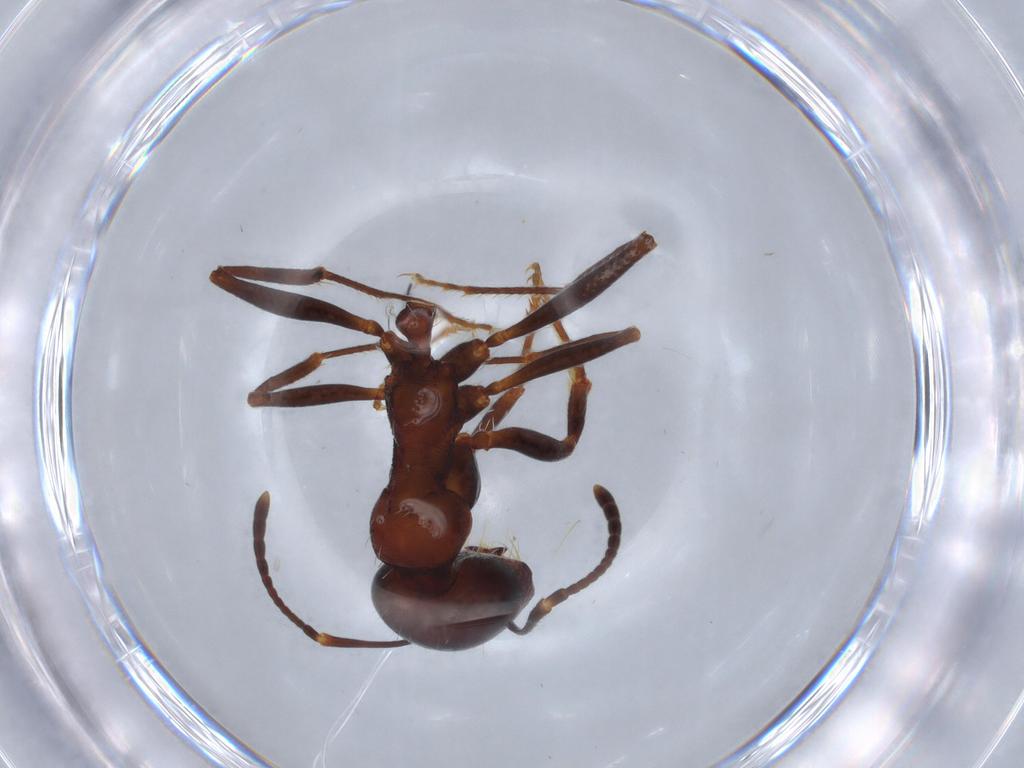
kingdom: Animalia
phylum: Arthropoda
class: Insecta
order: Hymenoptera
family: Formicidae
